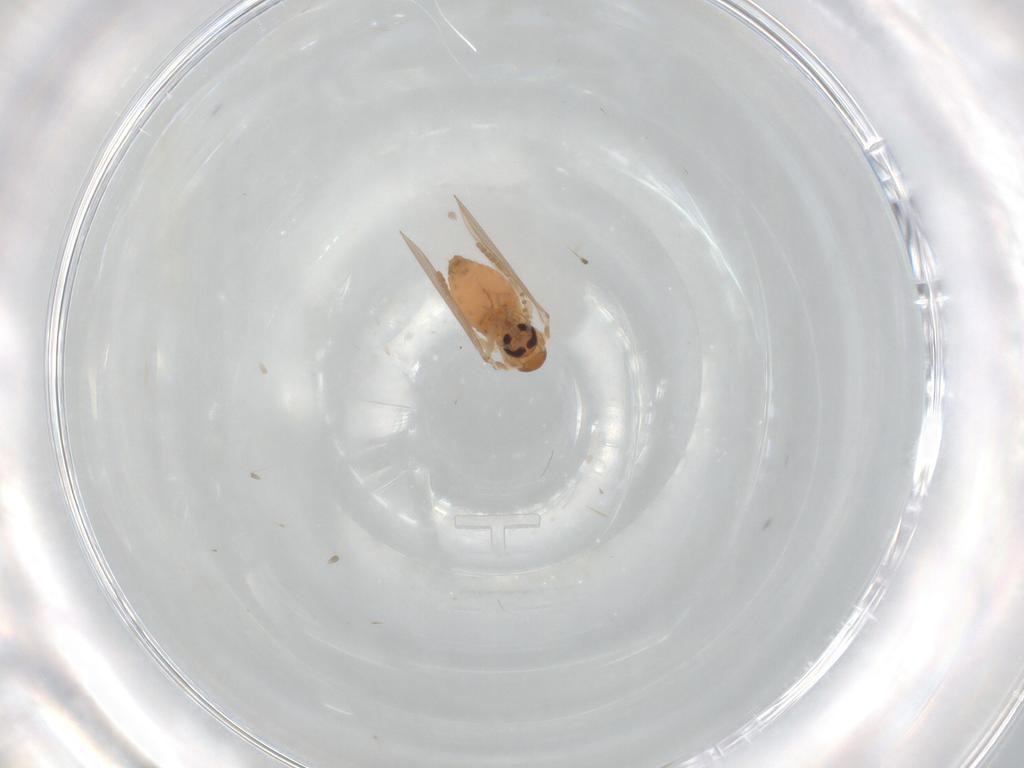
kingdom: Animalia
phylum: Arthropoda
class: Insecta
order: Diptera
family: Psychodidae
